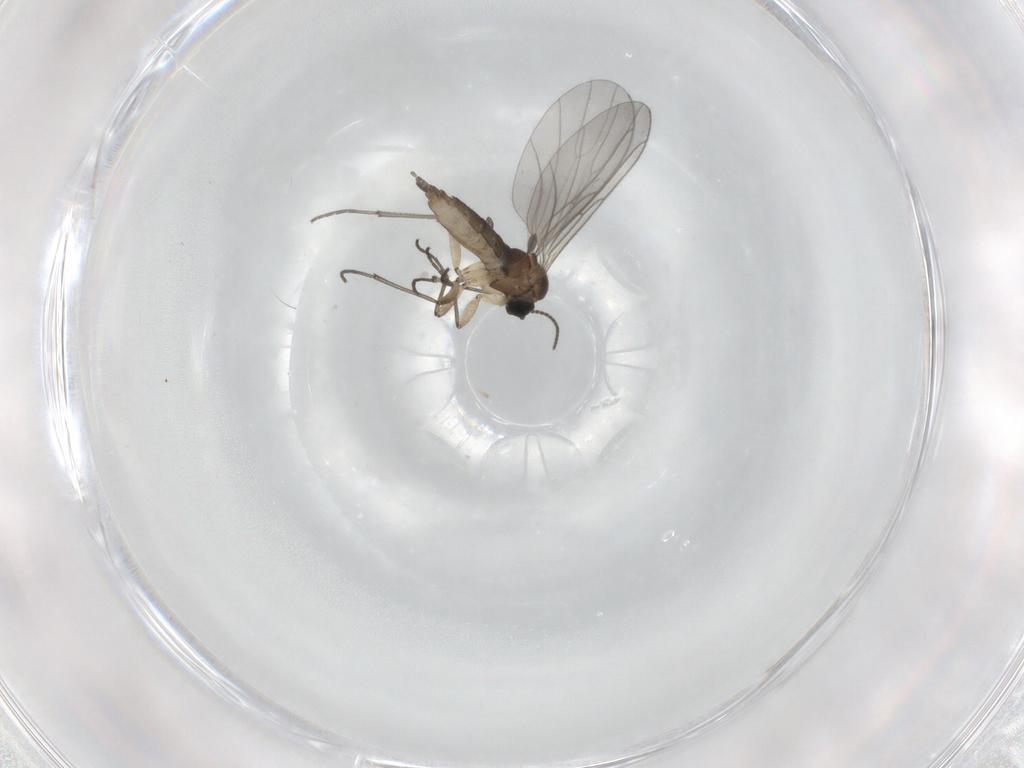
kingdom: Animalia
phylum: Arthropoda
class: Insecta
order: Diptera
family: Sciaridae
